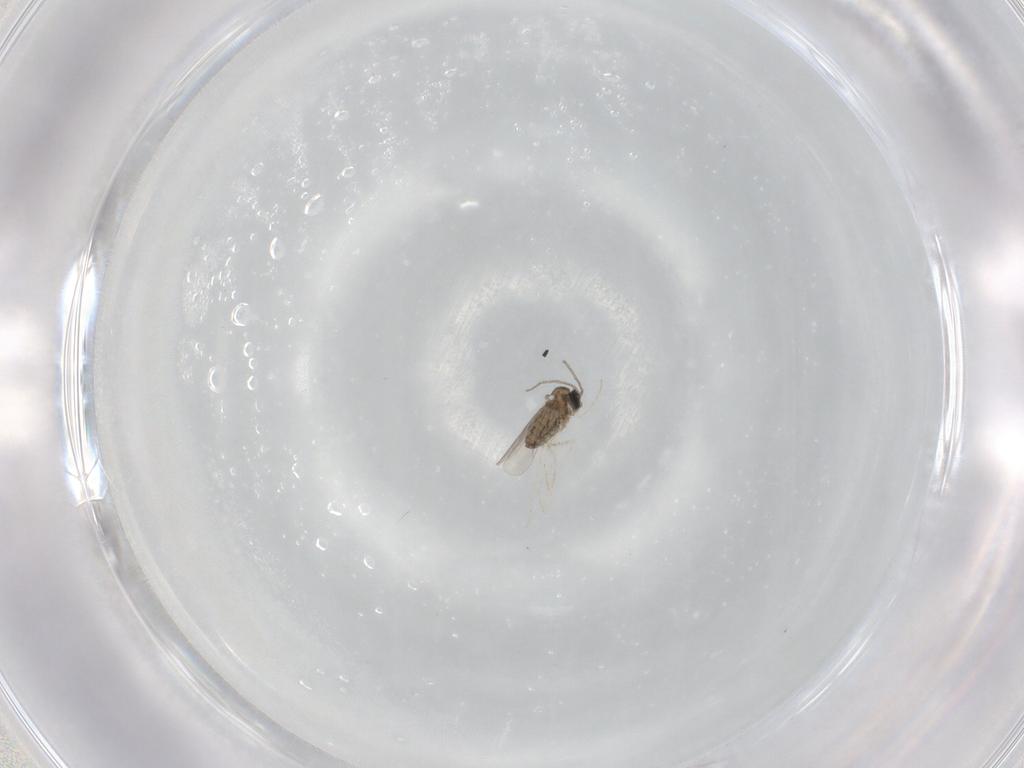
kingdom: Animalia
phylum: Arthropoda
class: Insecta
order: Diptera
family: Cecidomyiidae
